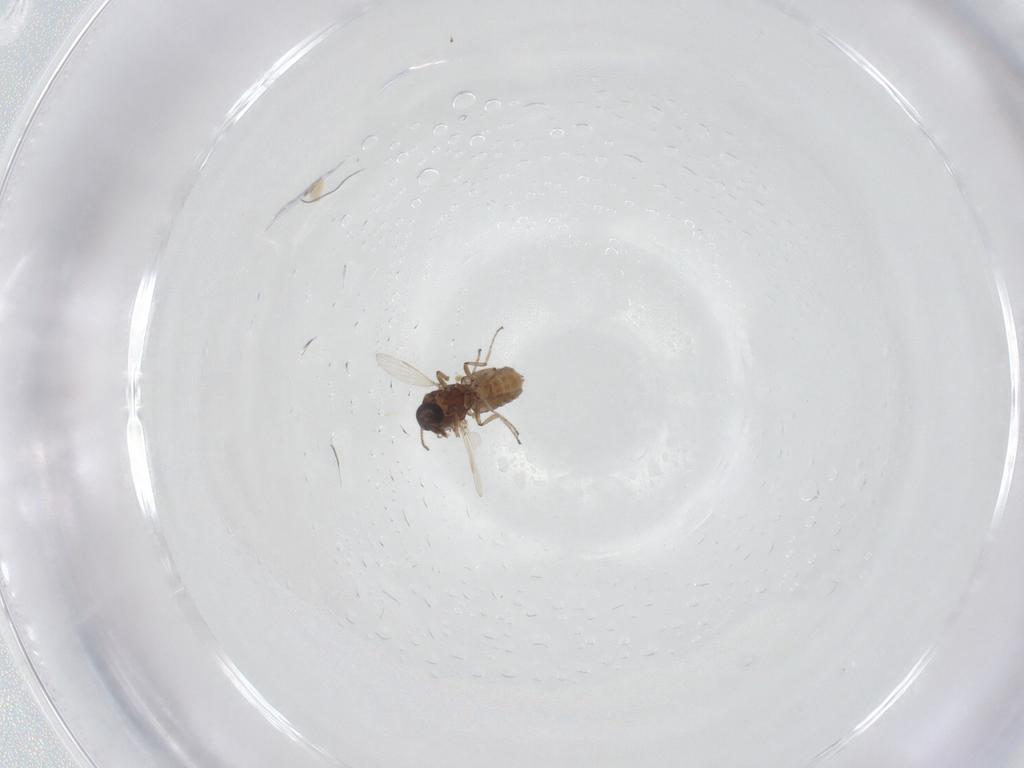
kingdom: Animalia
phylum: Arthropoda
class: Insecta
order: Diptera
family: Ceratopogonidae
